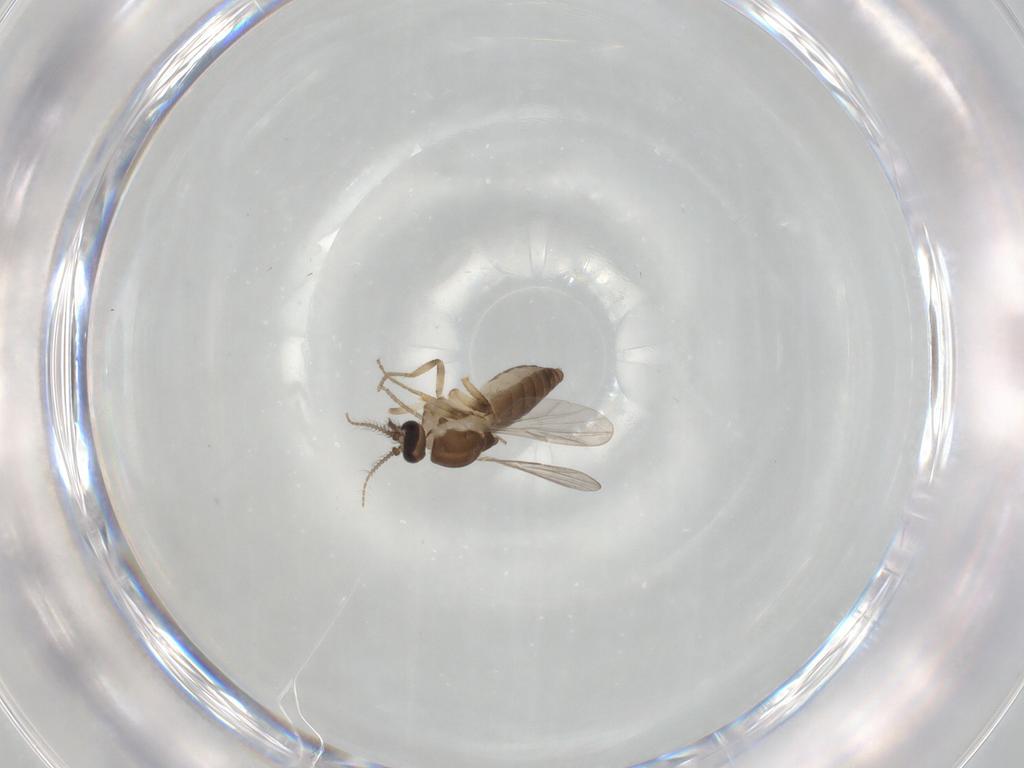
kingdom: Animalia
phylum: Arthropoda
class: Insecta
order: Diptera
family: Ceratopogonidae
